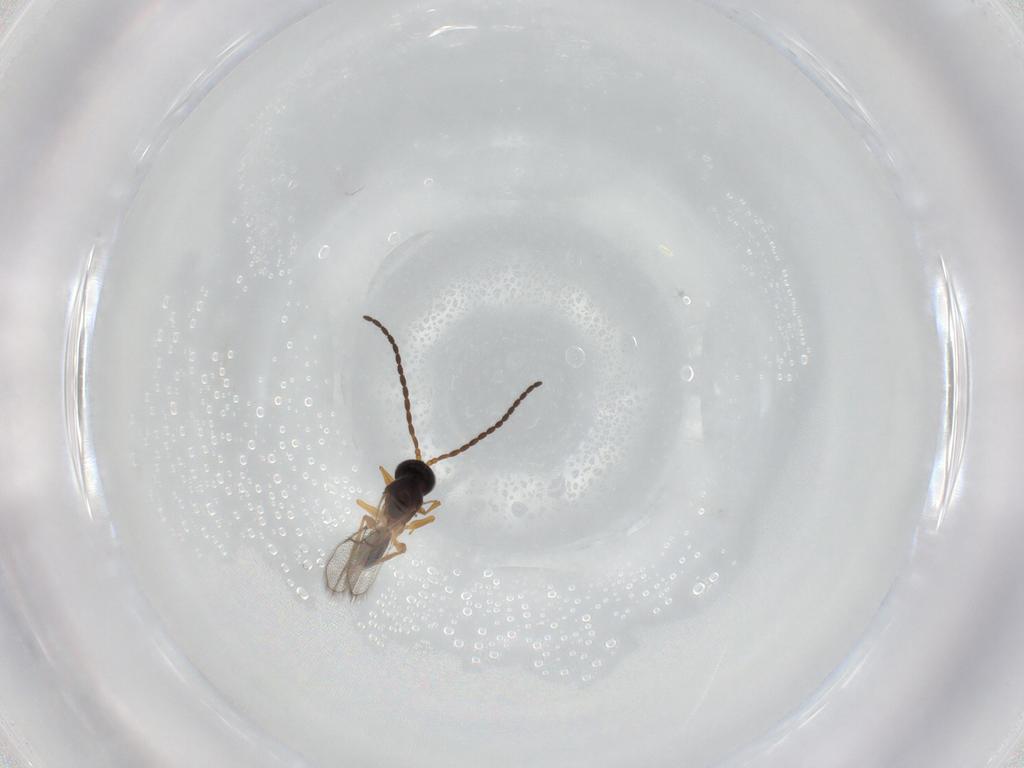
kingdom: Animalia
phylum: Arthropoda
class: Insecta
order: Hymenoptera
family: Figitidae
